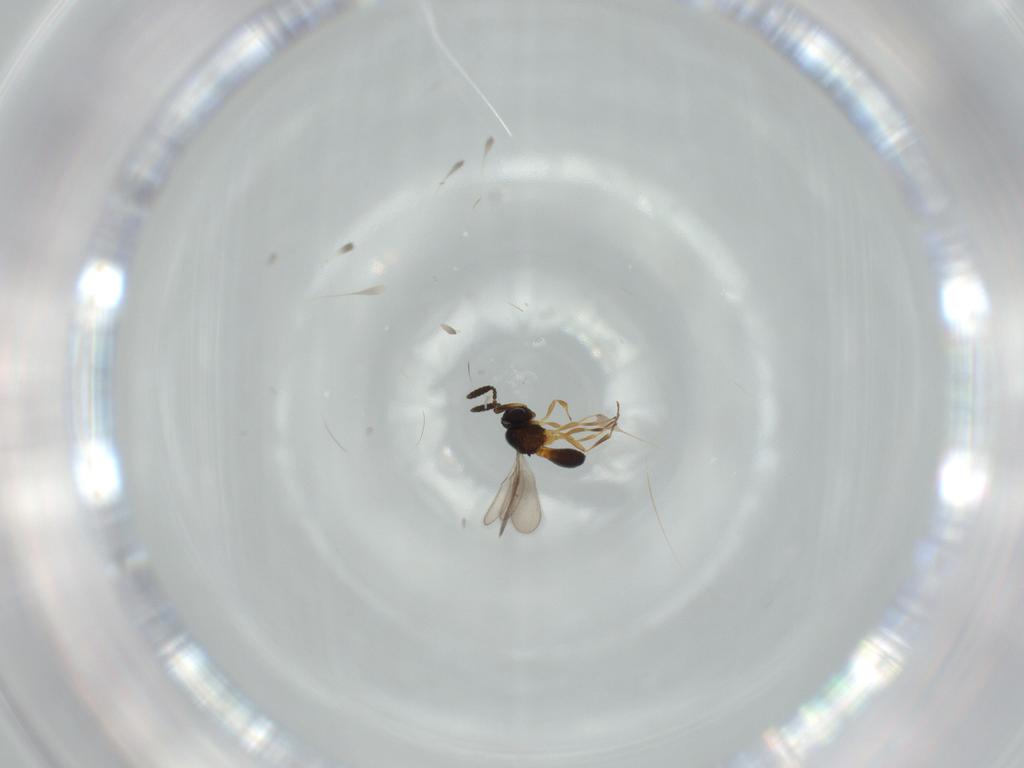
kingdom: Animalia
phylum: Arthropoda
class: Insecta
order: Hymenoptera
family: Scelionidae
